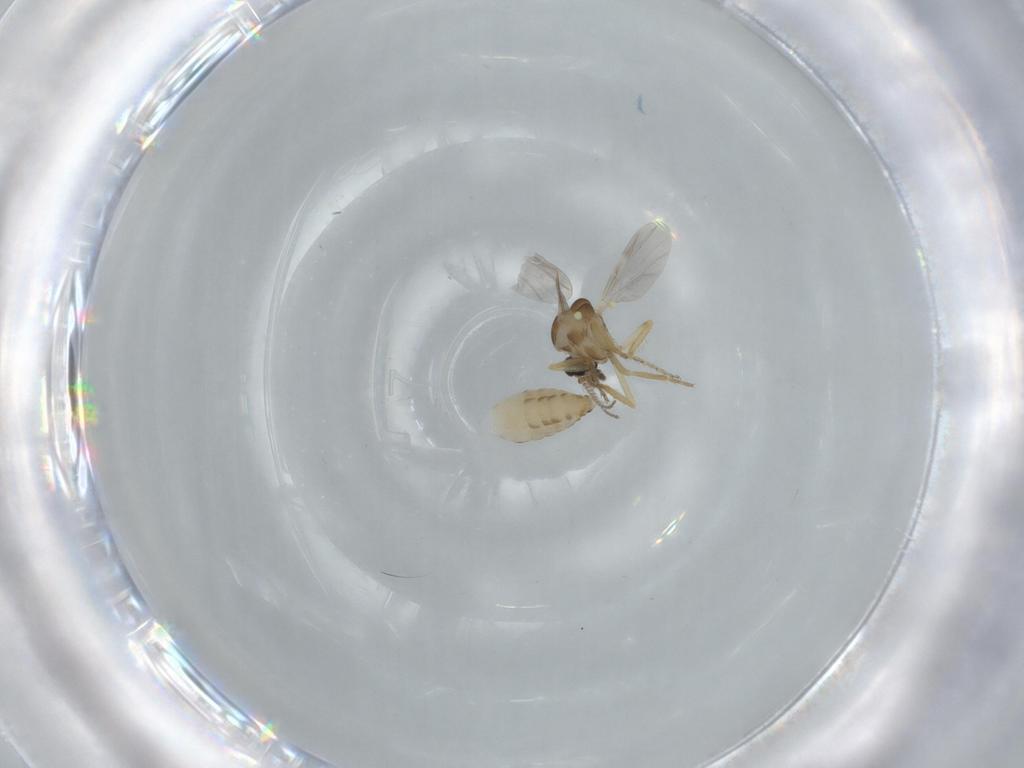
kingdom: Animalia
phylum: Arthropoda
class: Insecta
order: Diptera
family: Ceratopogonidae
